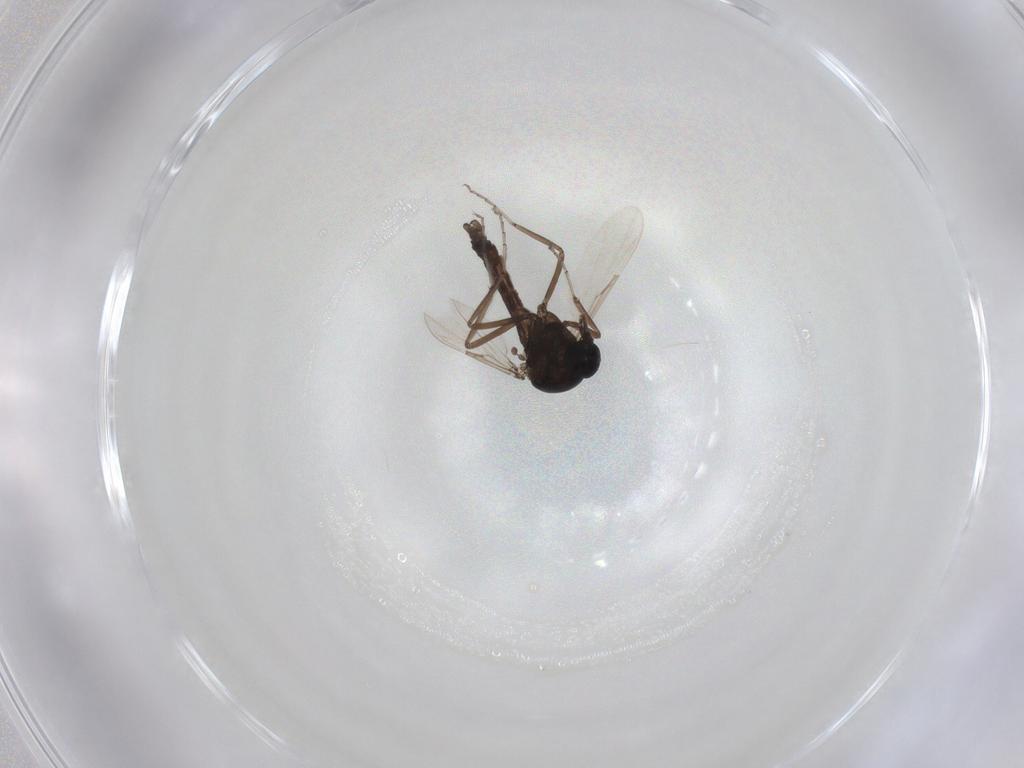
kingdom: Animalia
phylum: Arthropoda
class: Insecta
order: Diptera
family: Ceratopogonidae
